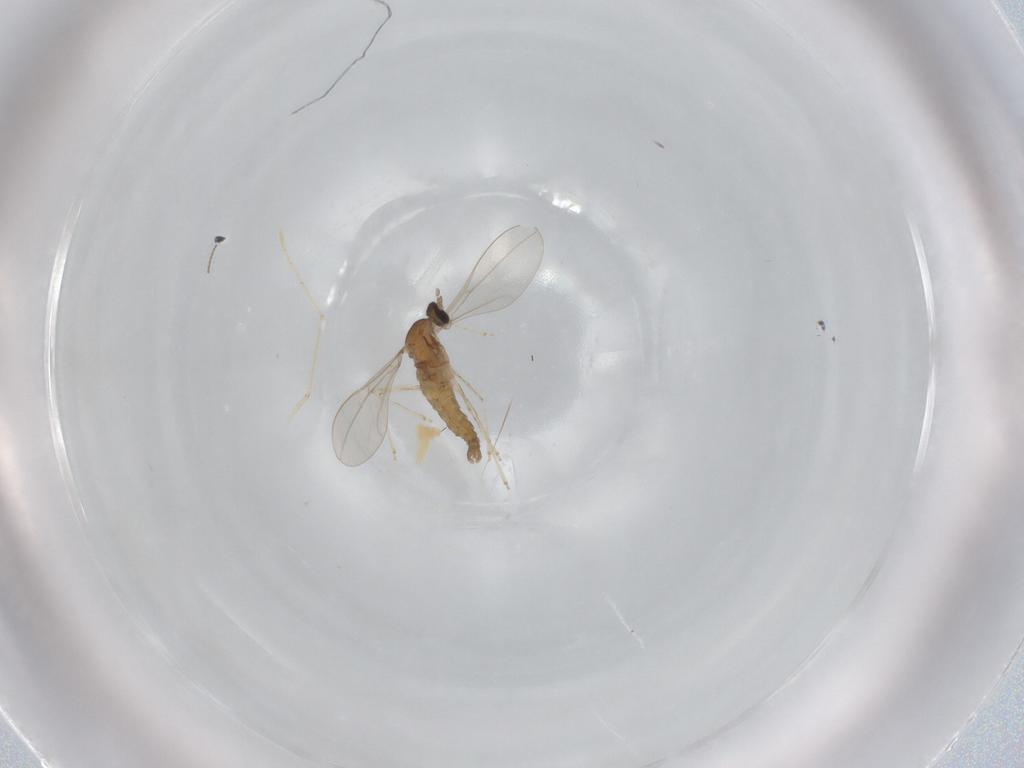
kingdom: Animalia
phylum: Arthropoda
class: Insecta
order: Diptera
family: Cecidomyiidae
